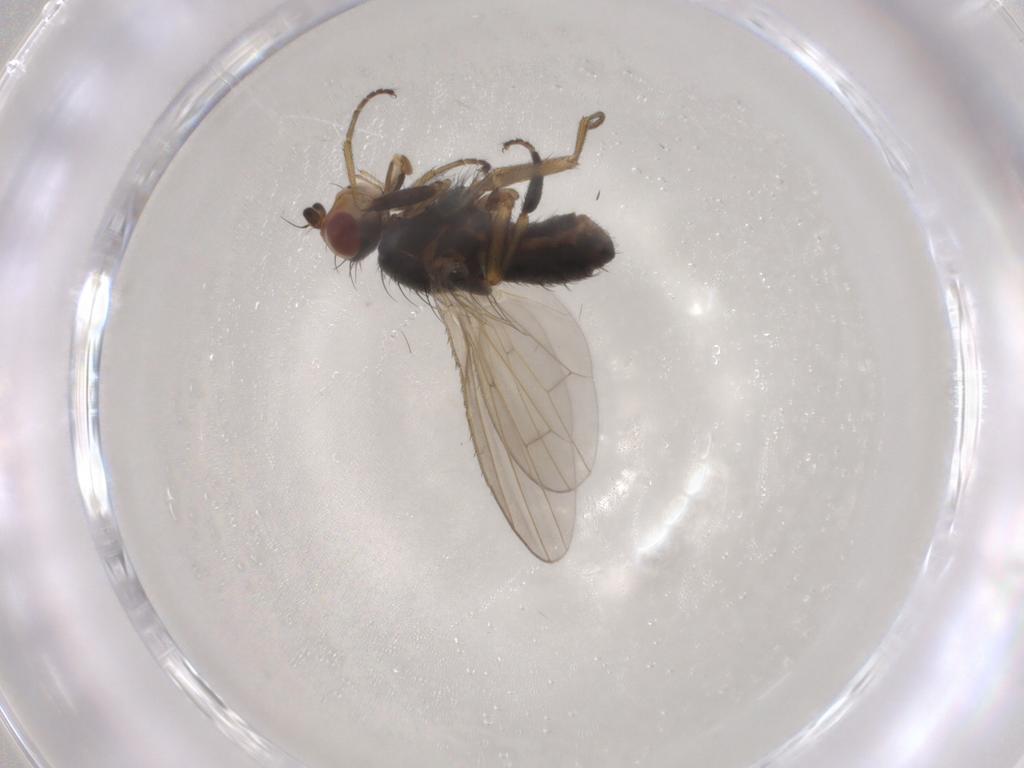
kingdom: Animalia
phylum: Arthropoda
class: Insecta
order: Diptera
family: Heleomyzidae
